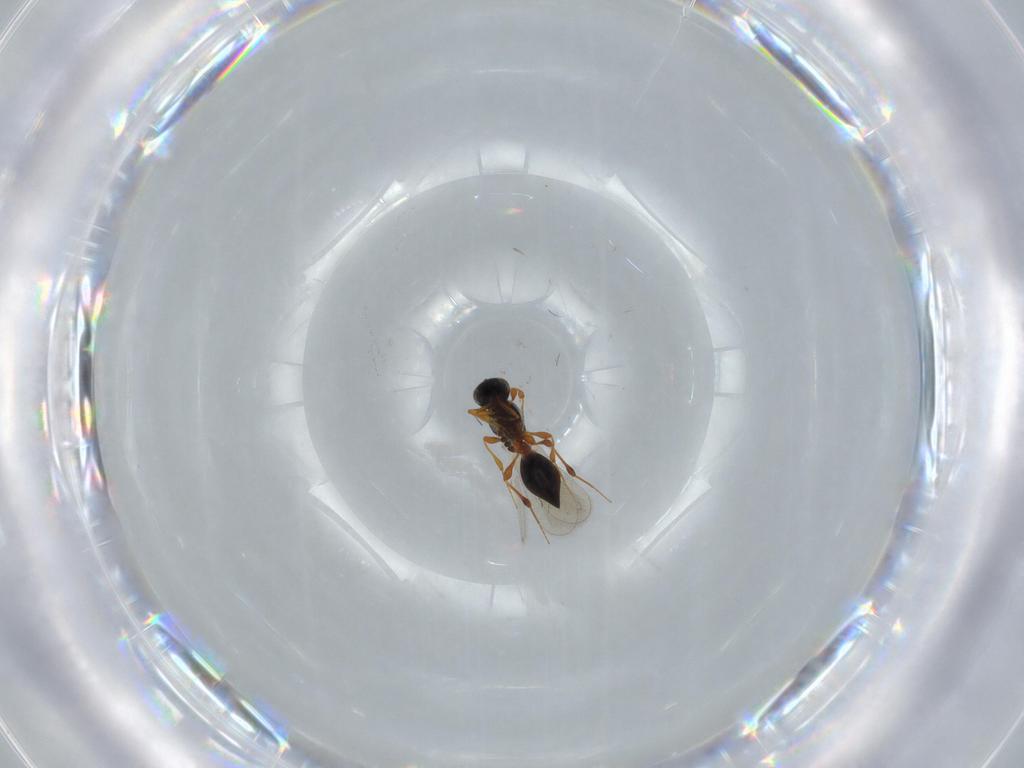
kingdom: Animalia
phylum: Arthropoda
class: Insecta
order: Hymenoptera
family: Platygastridae
